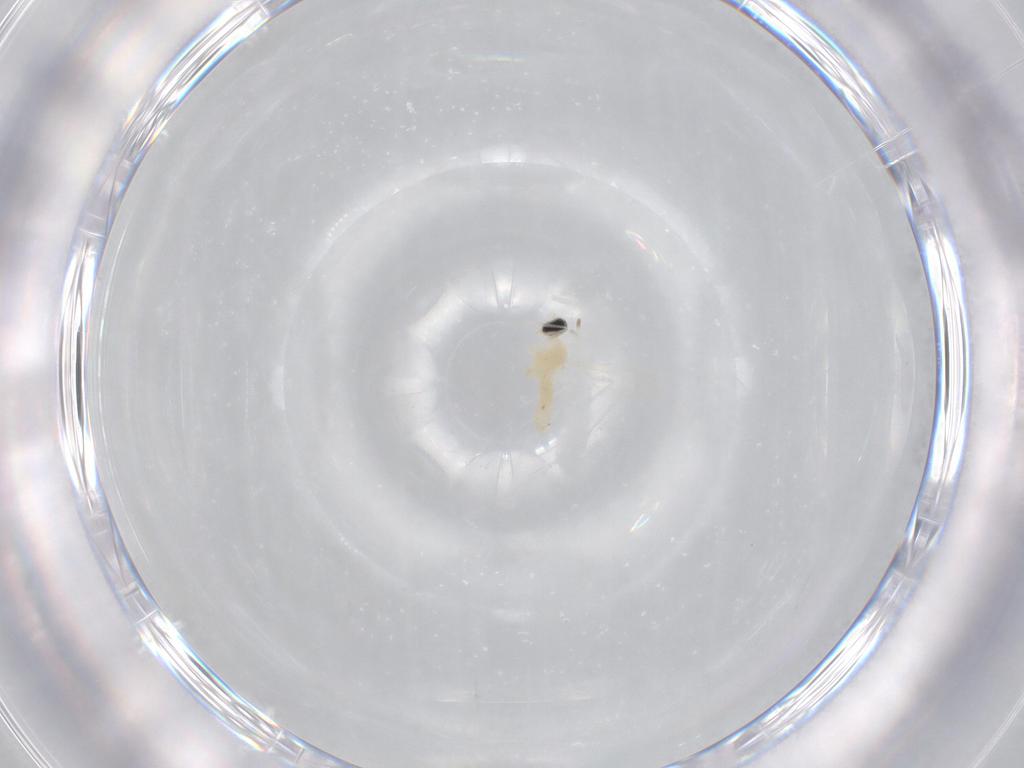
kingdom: Animalia
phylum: Arthropoda
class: Insecta
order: Diptera
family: Cecidomyiidae
